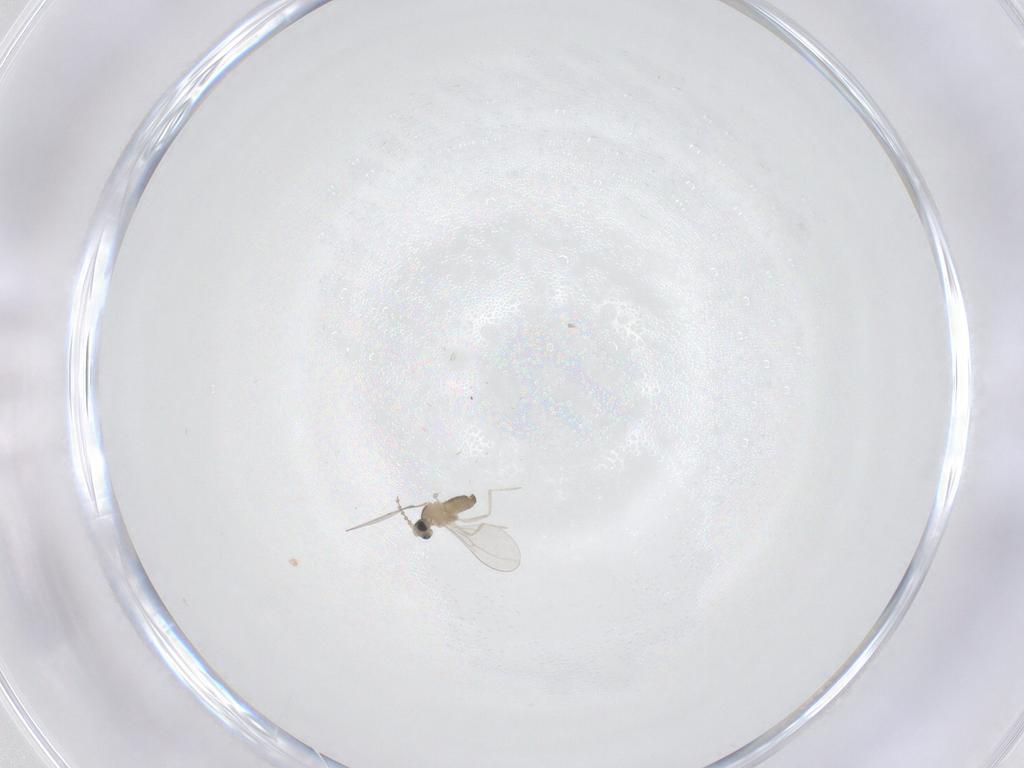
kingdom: Animalia
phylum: Arthropoda
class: Insecta
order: Diptera
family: Cecidomyiidae
